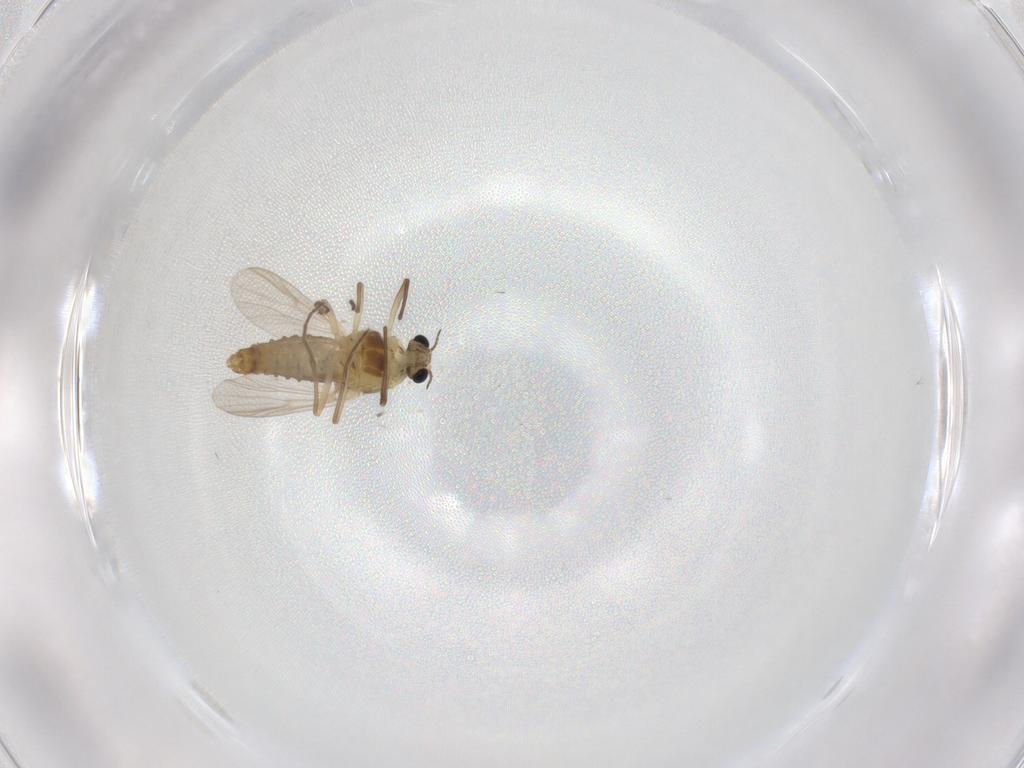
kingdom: Animalia
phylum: Arthropoda
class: Insecta
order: Diptera
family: Chironomidae
